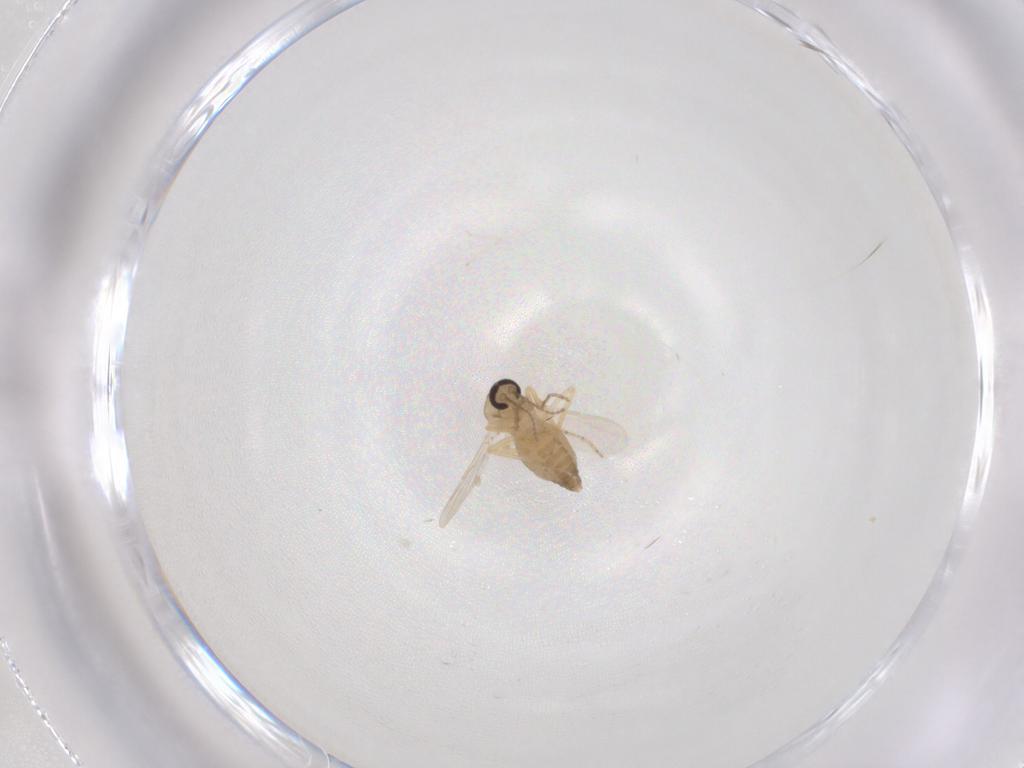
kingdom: Animalia
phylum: Arthropoda
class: Insecta
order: Diptera
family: Ceratopogonidae
